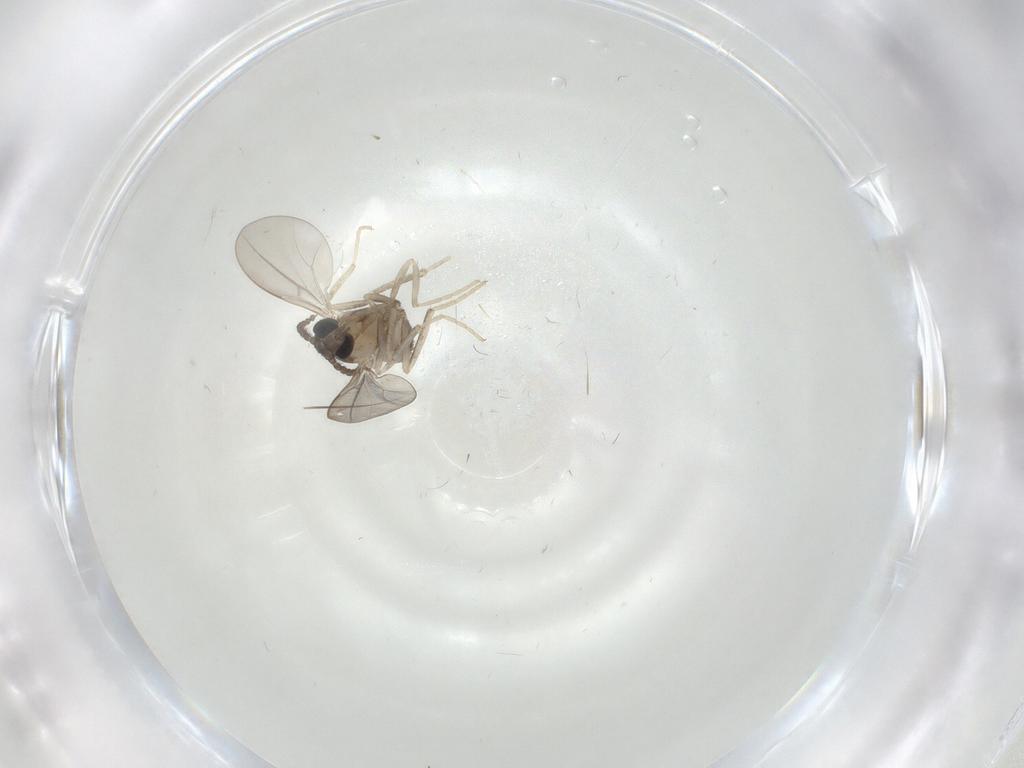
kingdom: Animalia
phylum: Arthropoda
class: Insecta
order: Diptera
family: Cecidomyiidae
